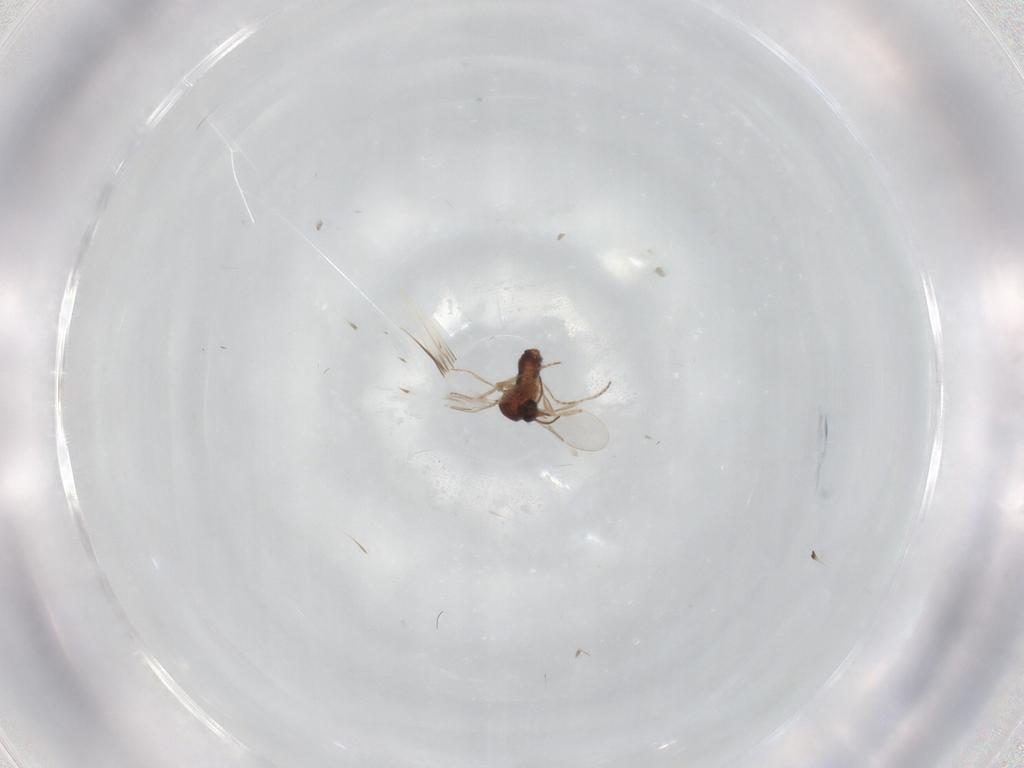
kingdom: Animalia
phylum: Arthropoda
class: Insecta
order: Diptera
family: Ceratopogonidae
